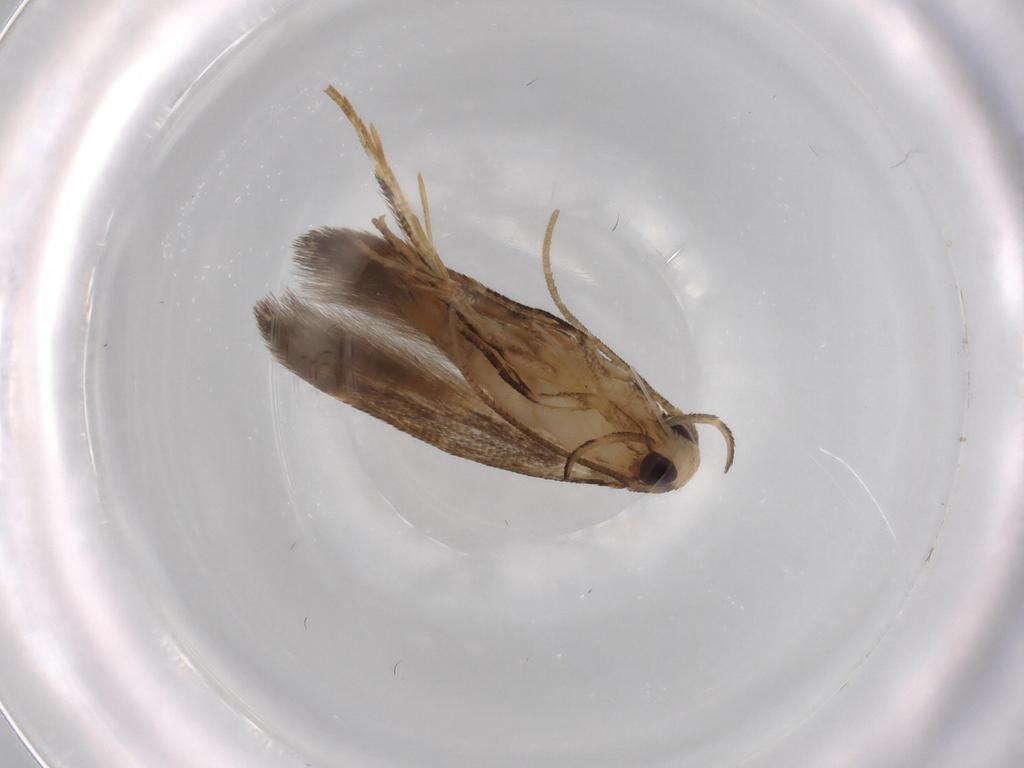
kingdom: Animalia
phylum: Arthropoda
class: Insecta
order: Lepidoptera
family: Cosmopterigidae
